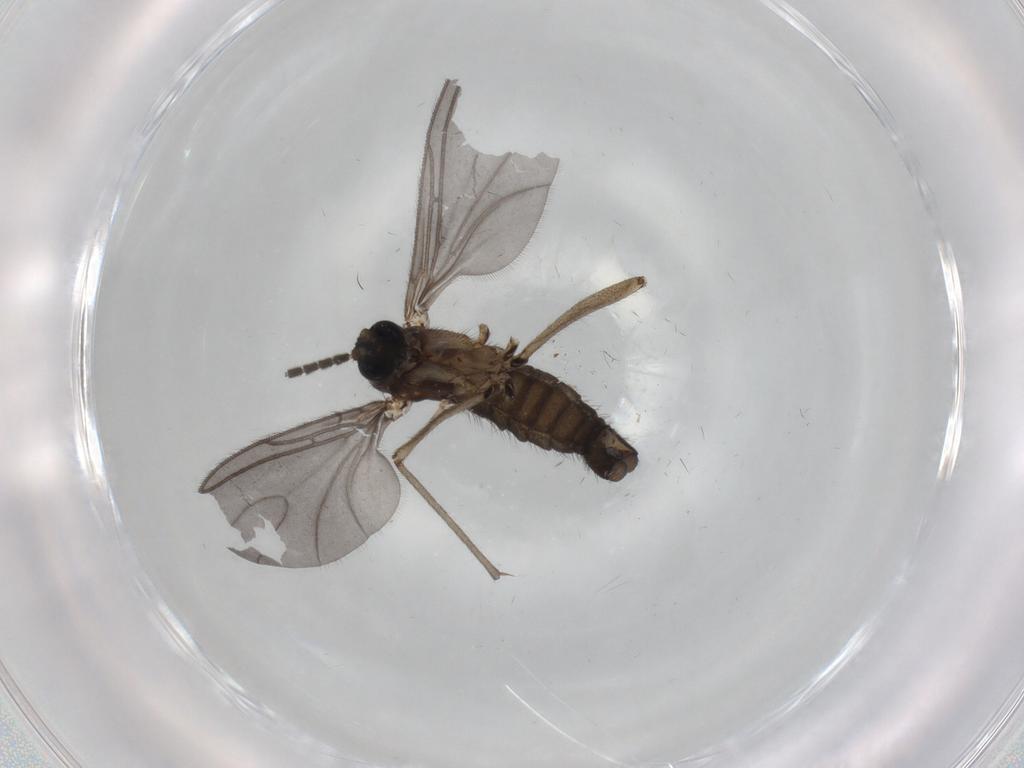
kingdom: Animalia
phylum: Arthropoda
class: Insecta
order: Diptera
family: Sciaridae
